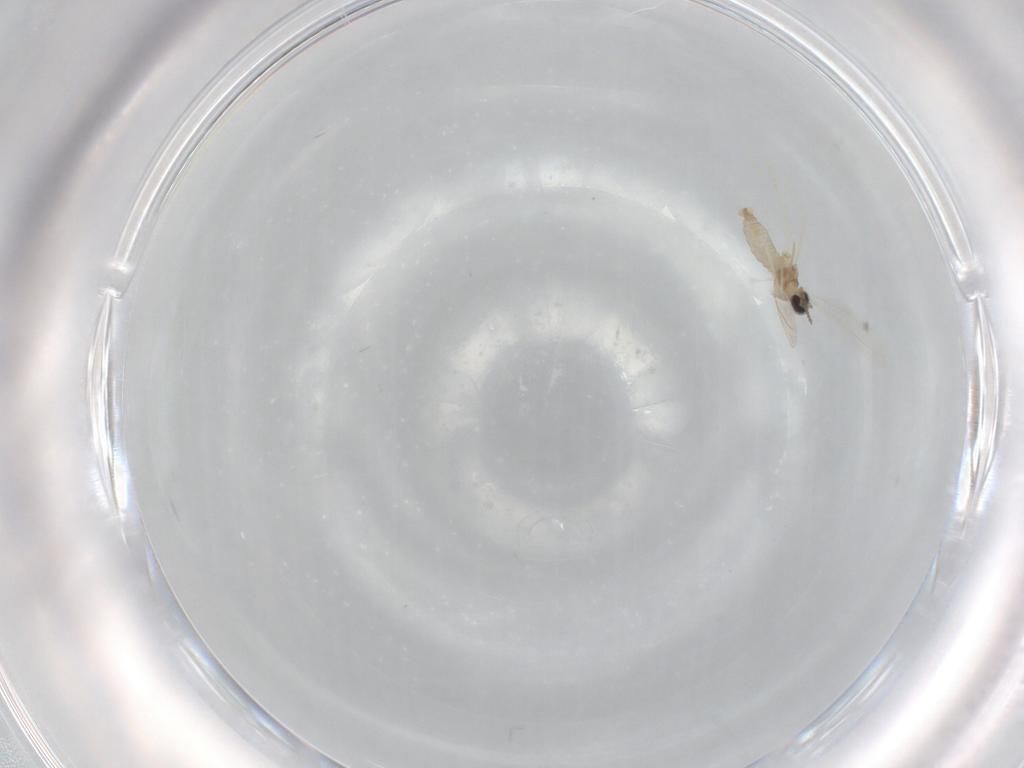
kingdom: Animalia
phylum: Arthropoda
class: Insecta
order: Diptera
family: Cecidomyiidae
